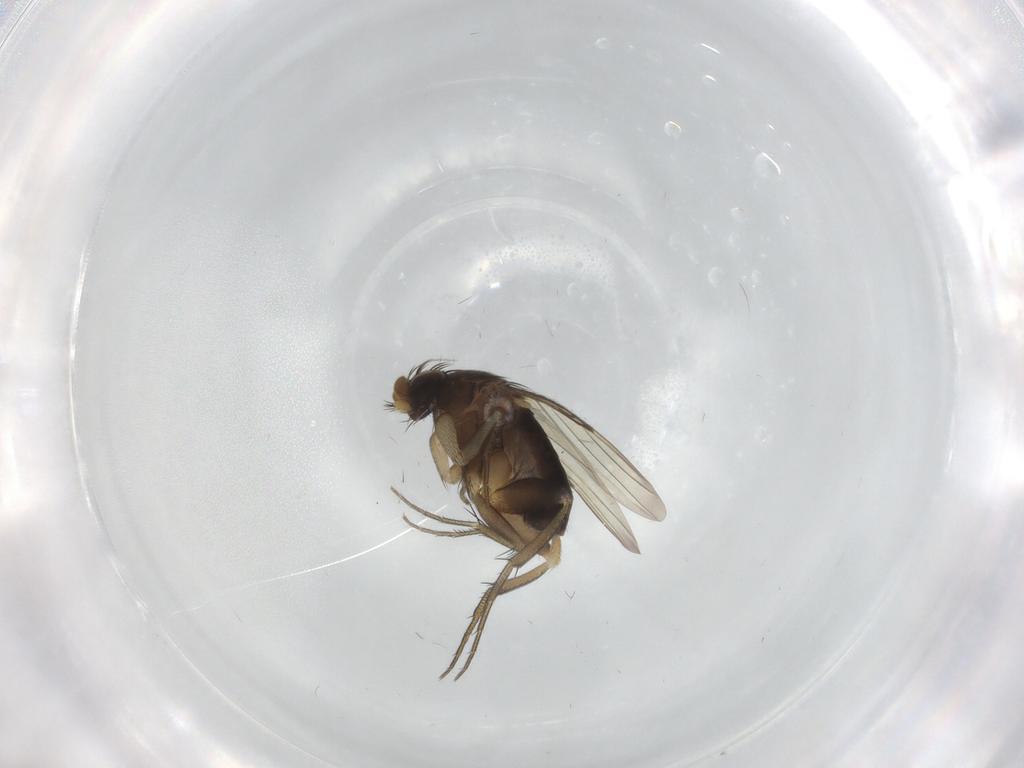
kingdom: Animalia
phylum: Arthropoda
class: Insecta
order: Diptera
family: Phoridae
